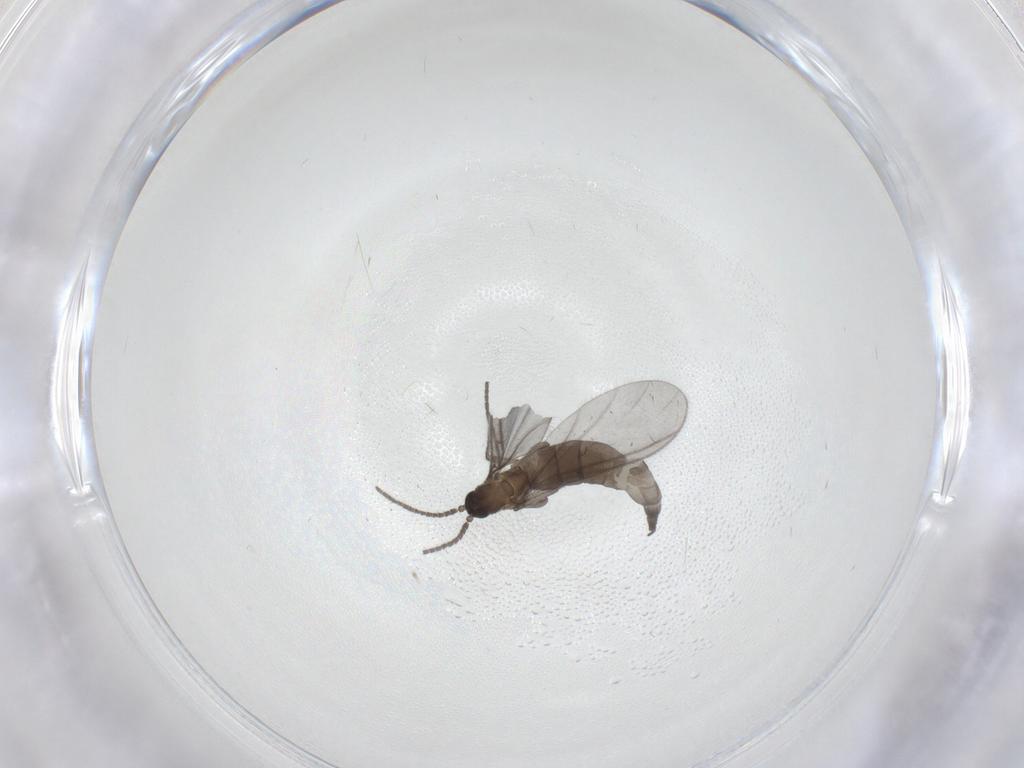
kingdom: Animalia
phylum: Arthropoda
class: Insecta
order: Diptera
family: Sciaridae
